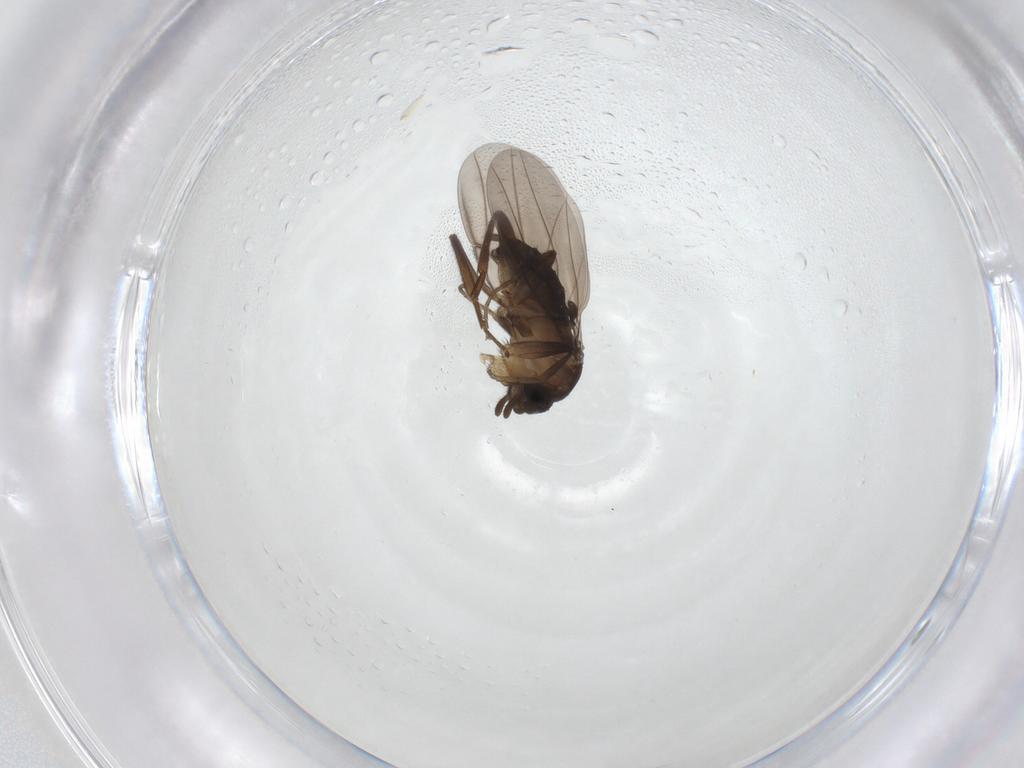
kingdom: Animalia
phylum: Arthropoda
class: Insecta
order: Diptera
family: Phoridae
